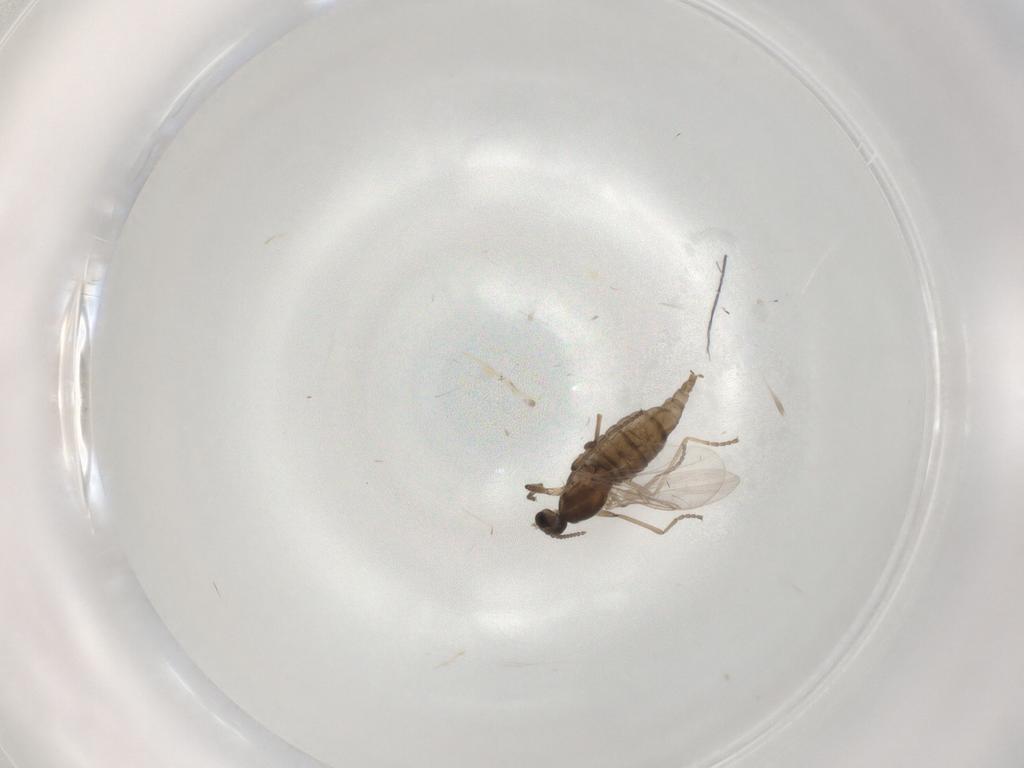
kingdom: Animalia
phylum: Arthropoda
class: Insecta
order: Diptera
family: Cecidomyiidae
